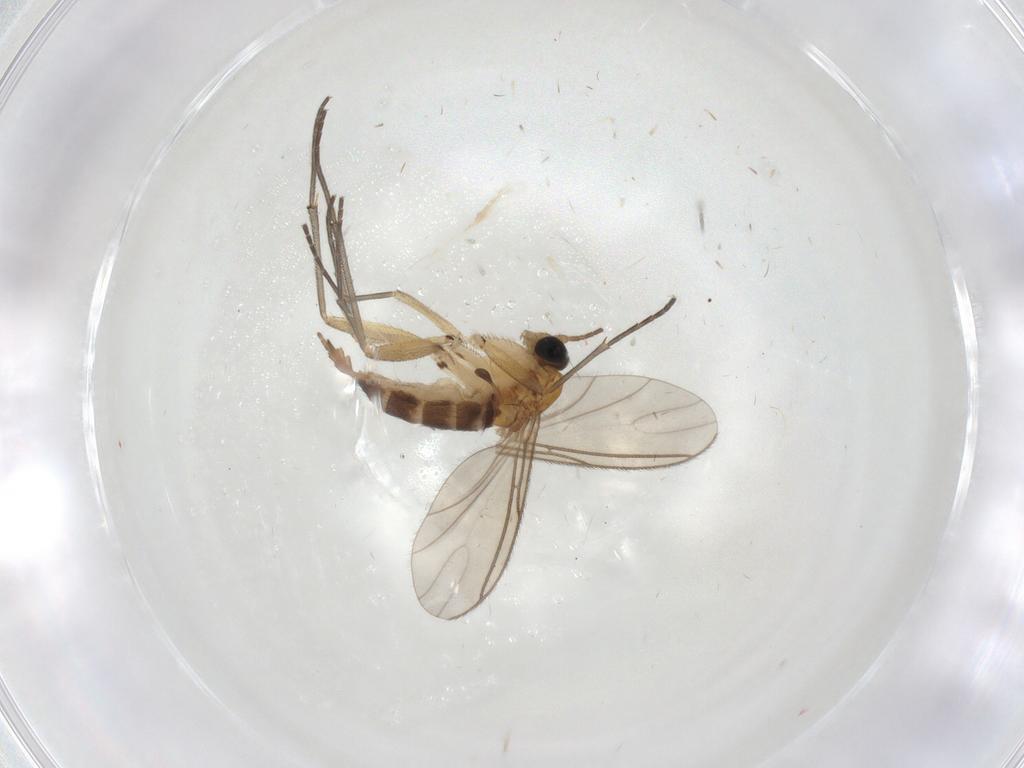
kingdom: Animalia
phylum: Arthropoda
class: Insecta
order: Diptera
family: Sciaridae
